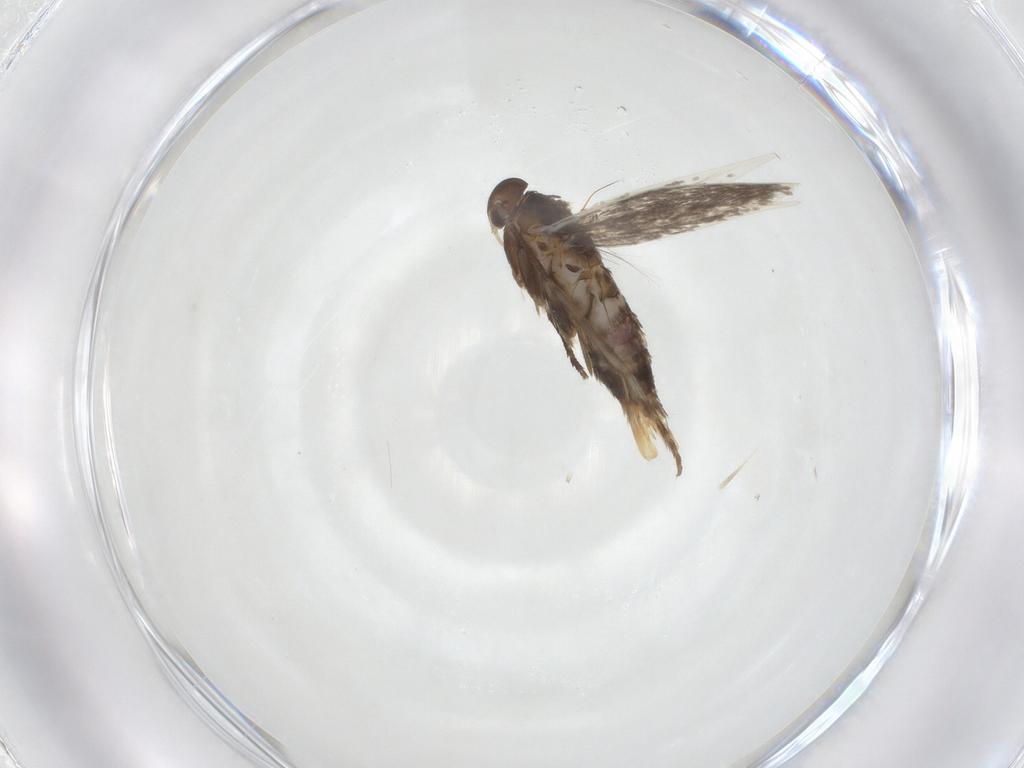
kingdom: Animalia
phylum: Arthropoda
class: Insecta
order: Lepidoptera
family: Elachistidae
